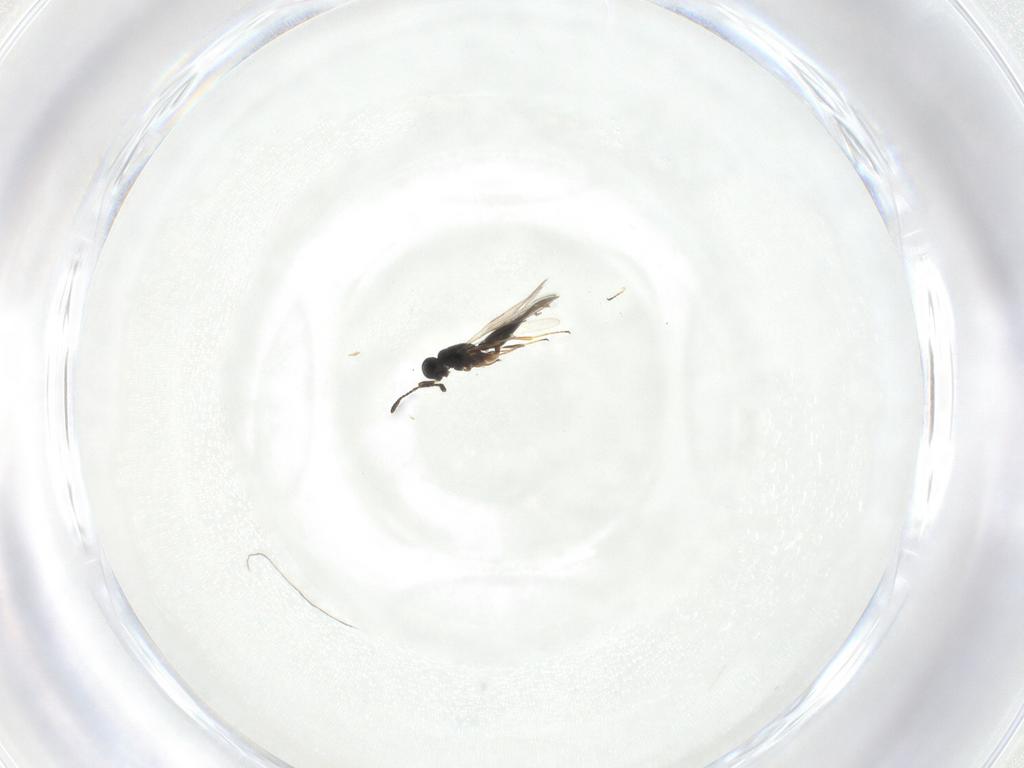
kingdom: Animalia
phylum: Arthropoda
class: Insecta
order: Hymenoptera
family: Scelionidae
